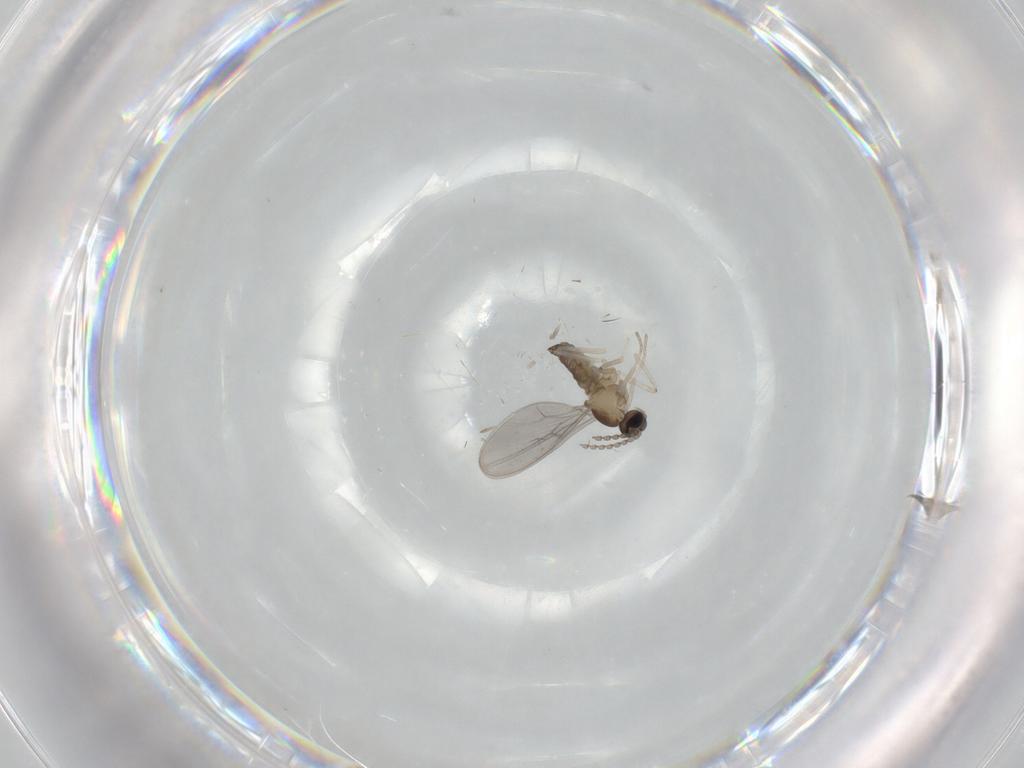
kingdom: Animalia
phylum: Arthropoda
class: Insecta
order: Diptera
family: Cecidomyiidae
